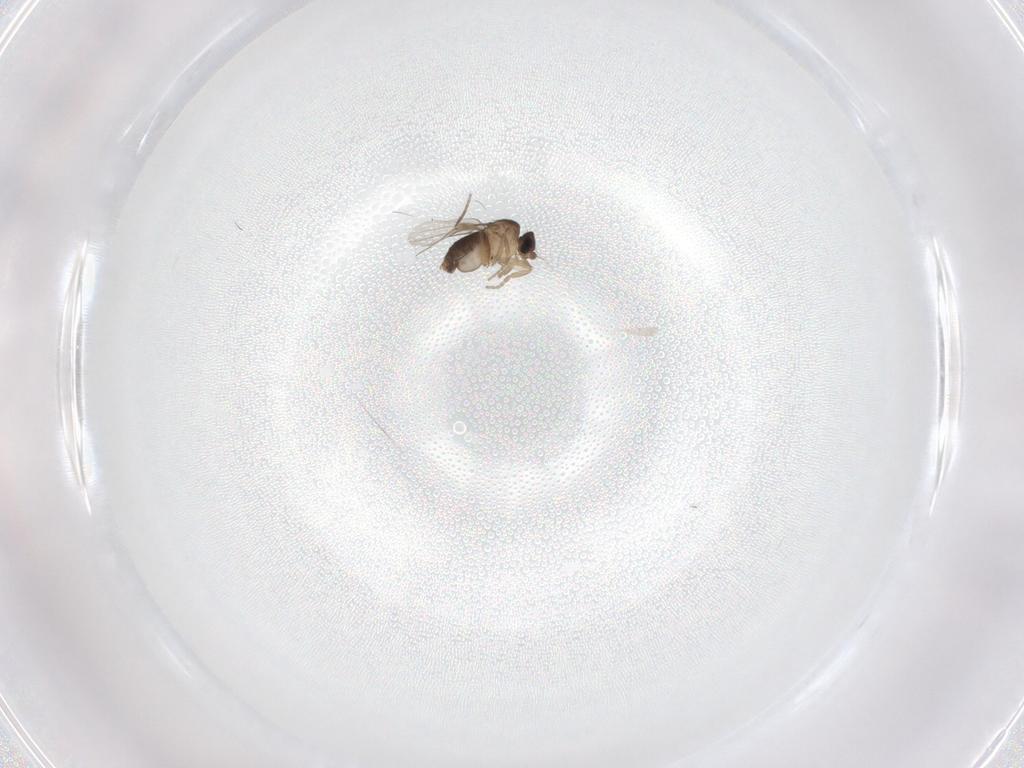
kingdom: Animalia
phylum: Arthropoda
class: Insecta
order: Diptera
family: Phoridae
